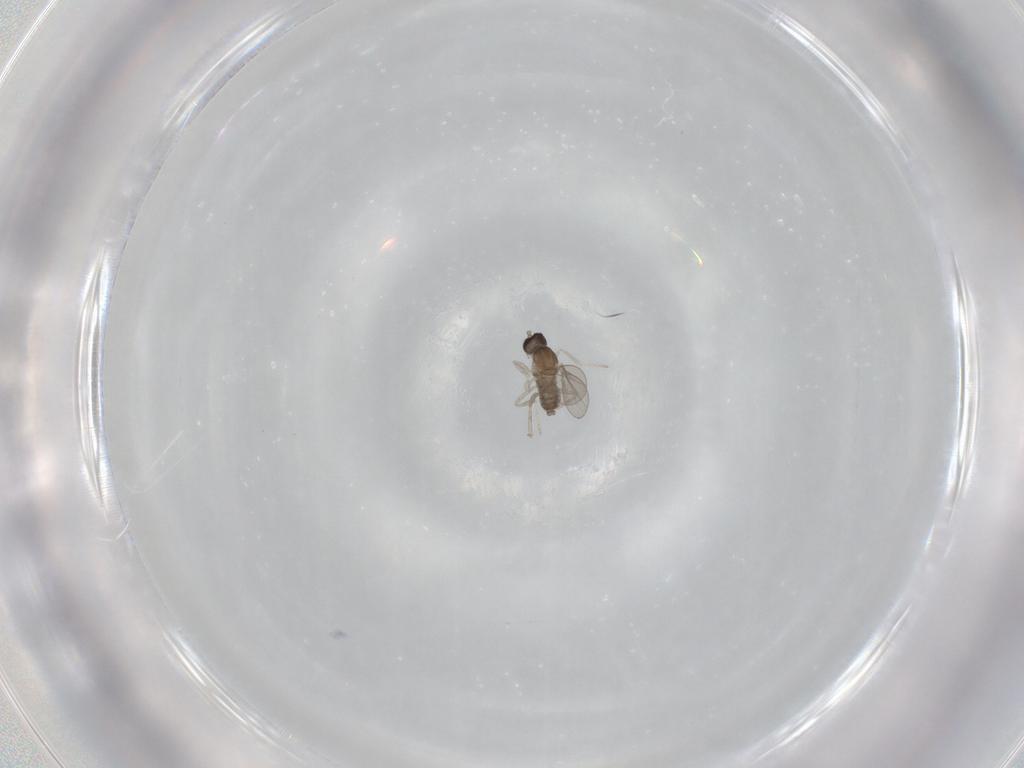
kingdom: Animalia
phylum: Arthropoda
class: Insecta
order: Diptera
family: Cecidomyiidae
